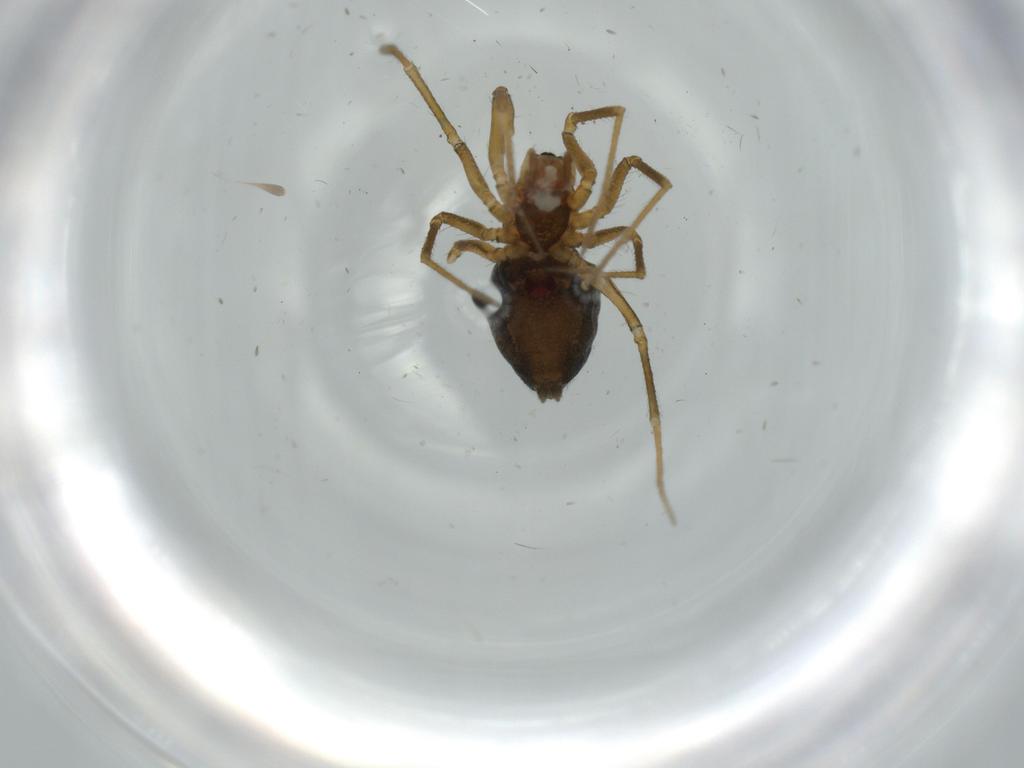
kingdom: Animalia
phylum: Arthropoda
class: Arachnida
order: Araneae
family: Linyphiidae
